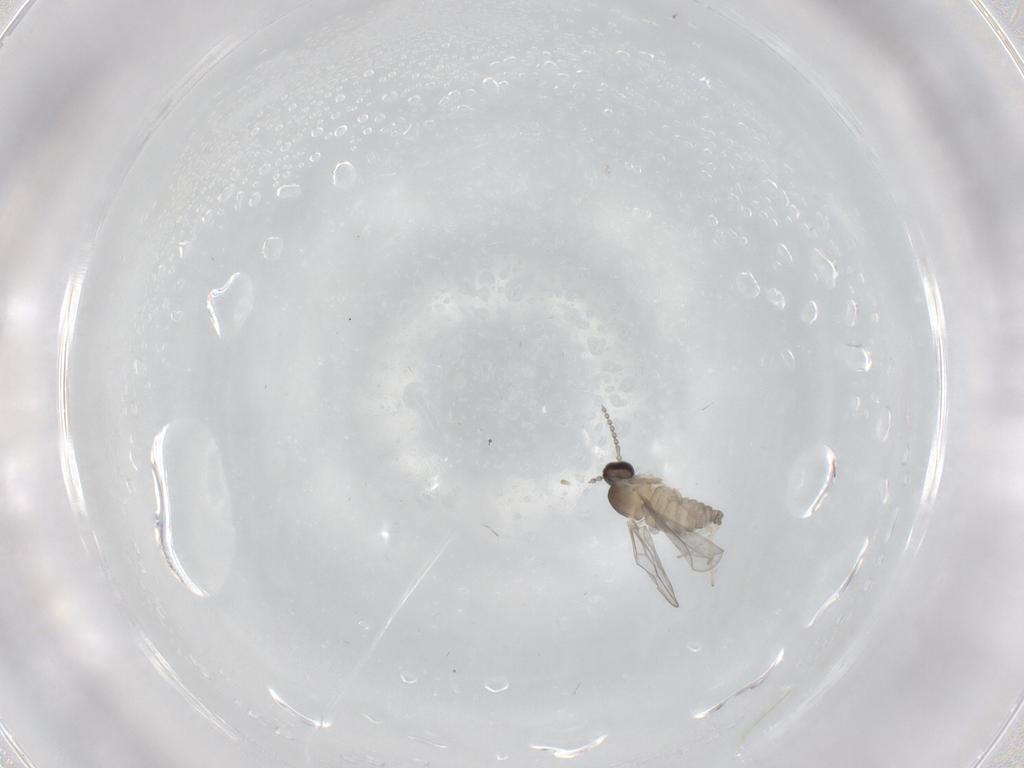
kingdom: Animalia
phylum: Arthropoda
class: Insecta
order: Diptera
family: Cecidomyiidae
